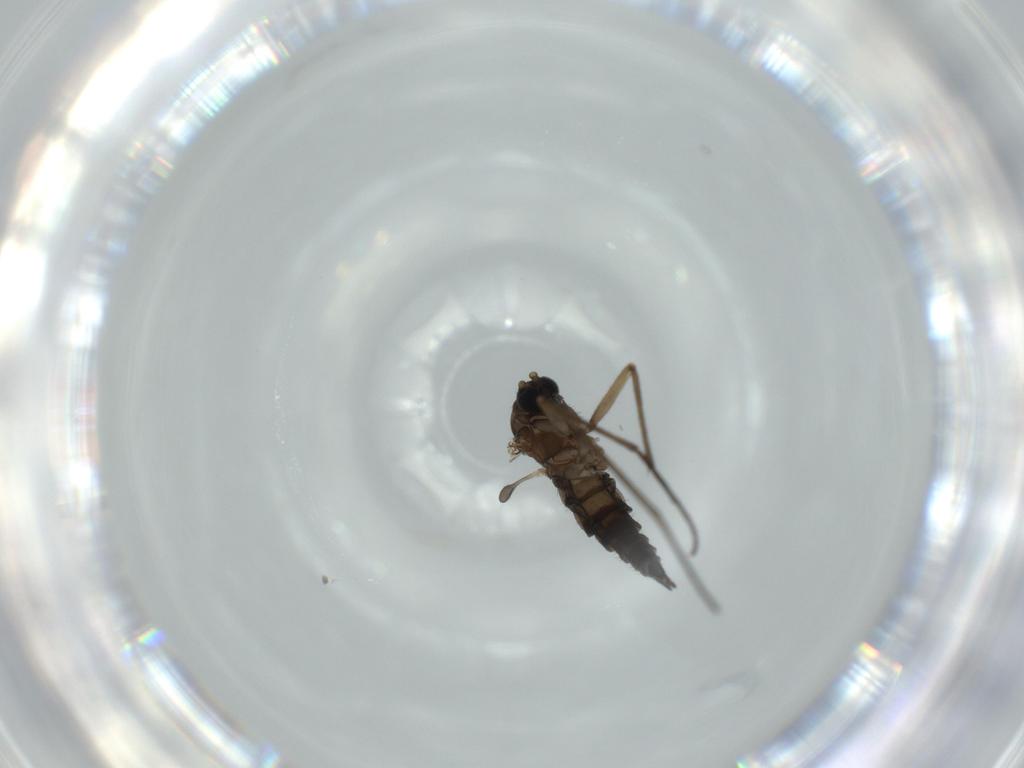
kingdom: Animalia
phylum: Arthropoda
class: Insecta
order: Diptera
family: Sciaridae
